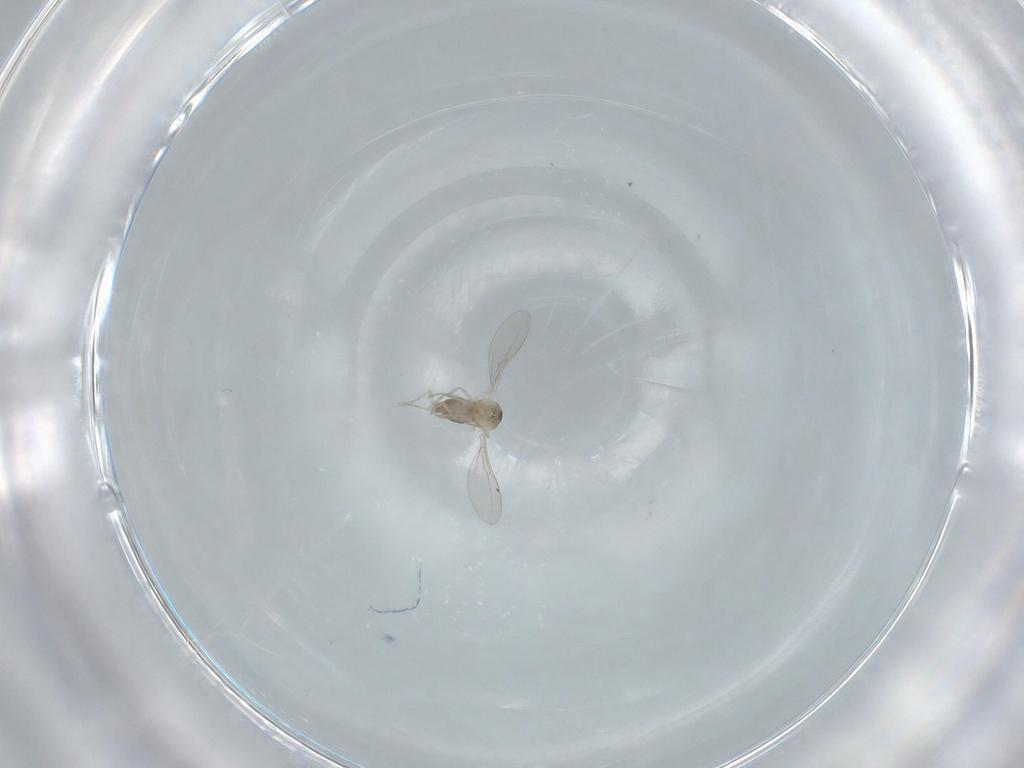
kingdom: Animalia
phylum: Arthropoda
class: Insecta
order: Diptera
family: Cecidomyiidae
